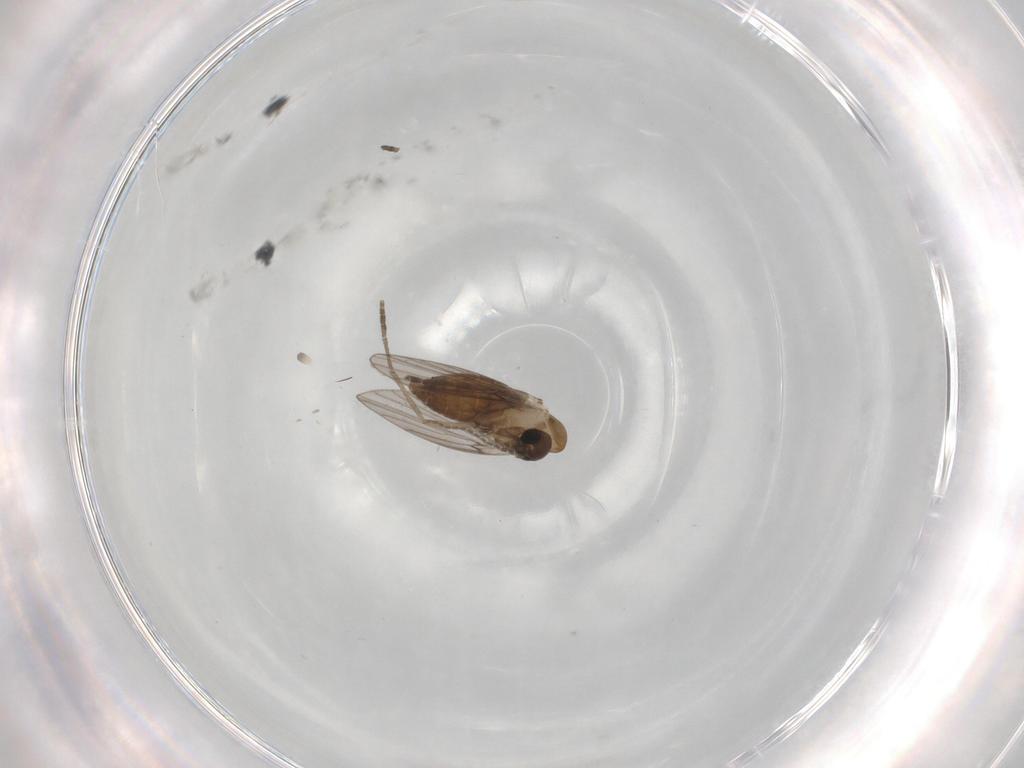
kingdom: Animalia
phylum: Arthropoda
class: Insecta
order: Diptera
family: Psychodidae
